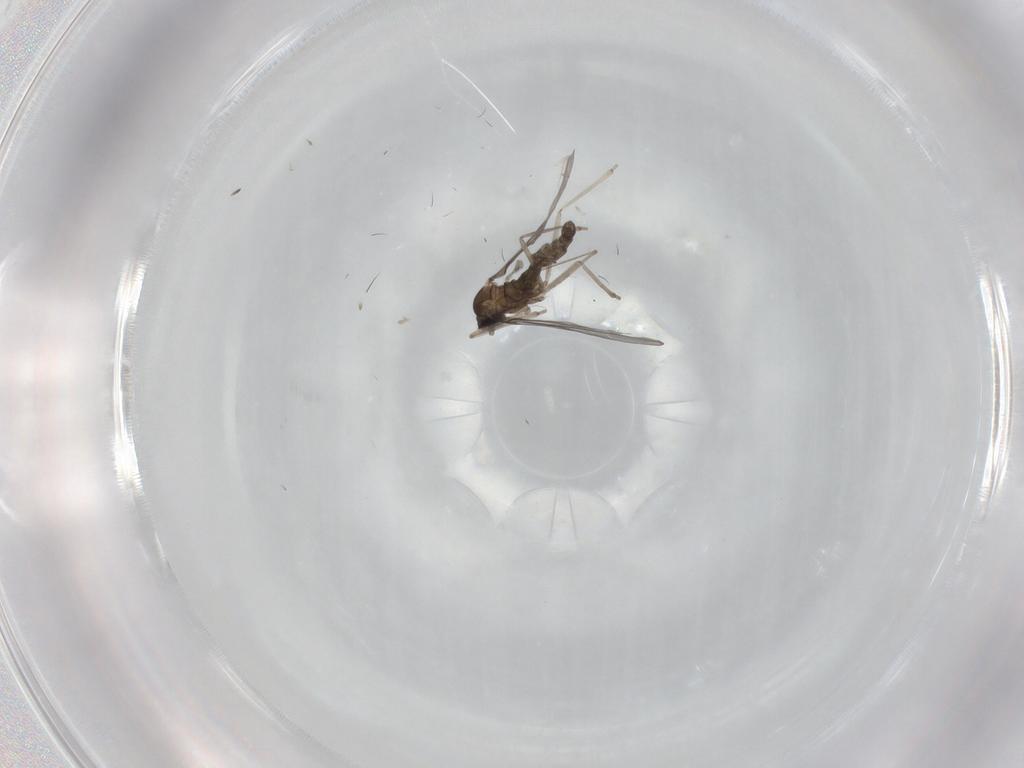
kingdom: Animalia
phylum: Arthropoda
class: Insecta
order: Diptera
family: Cecidomyiidae
